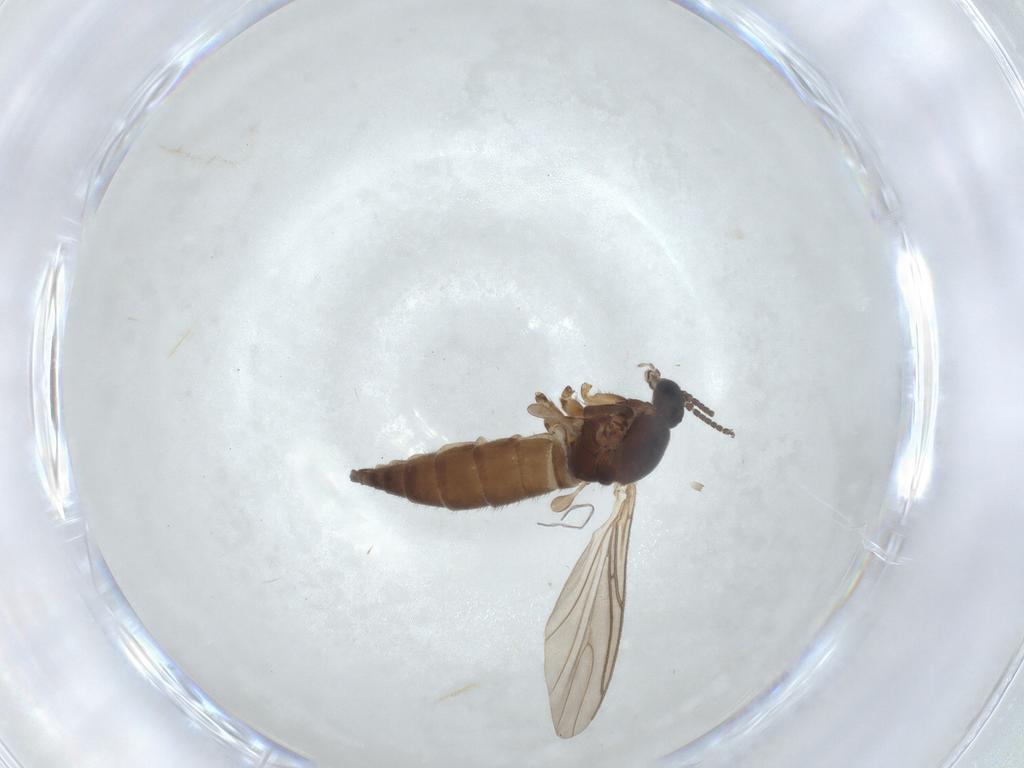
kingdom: Animalia
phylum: Arthropoda
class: Insecta
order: Diptera
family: Sciaridae
